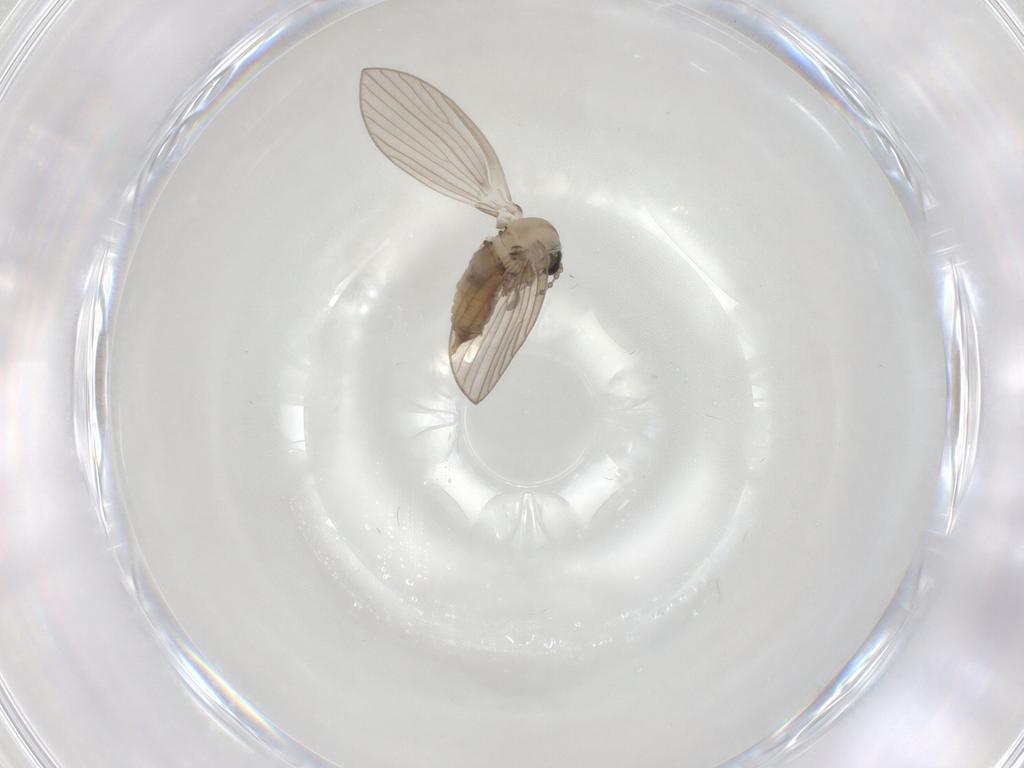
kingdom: Animalia
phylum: Arthropoda
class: Insecta
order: Diptera
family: Psychodidae
